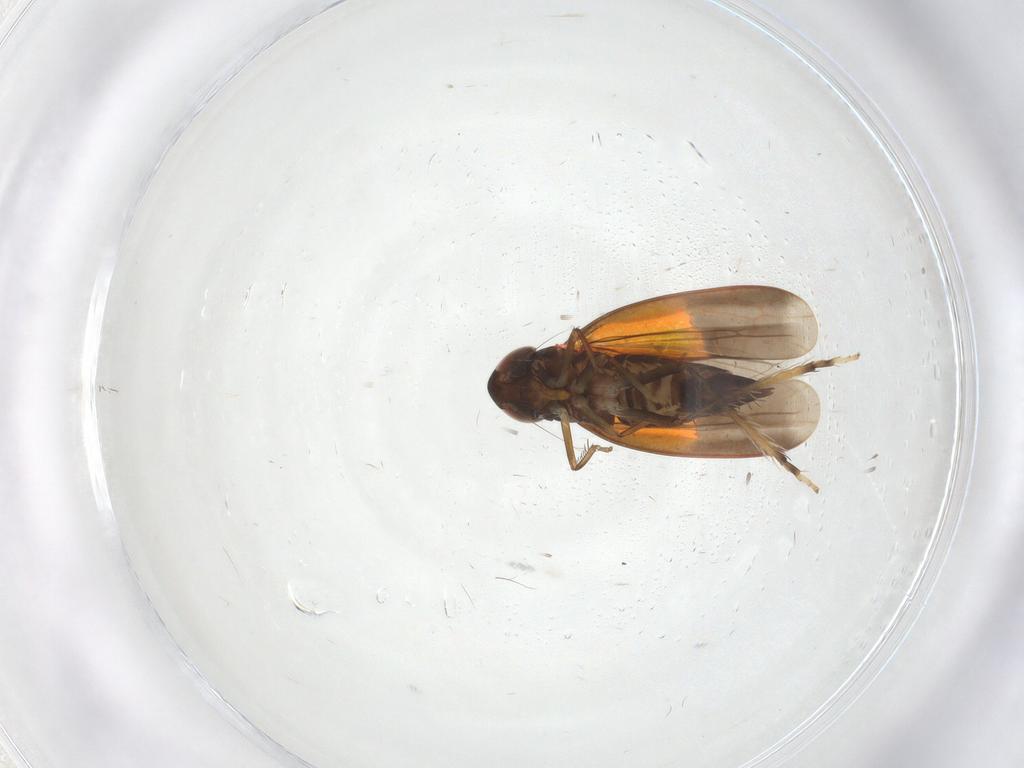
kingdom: Animalia
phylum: Arthropoda
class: Insecta
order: Hemiptera
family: Cicadellidae
